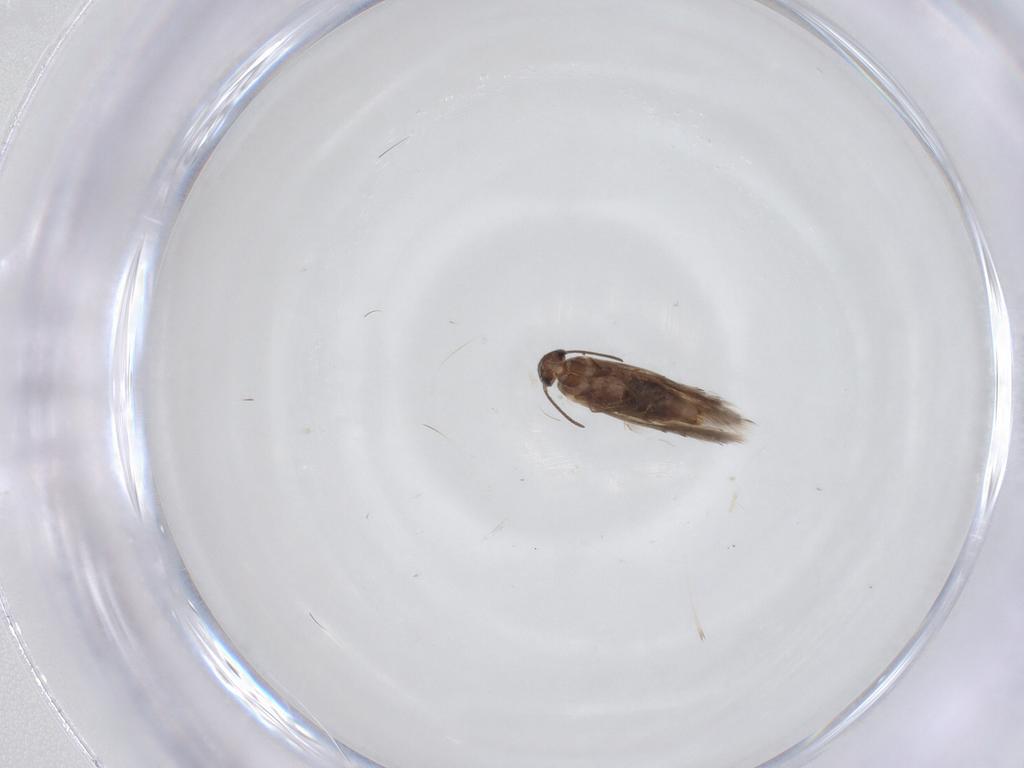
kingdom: Animalia
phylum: Arthropoda
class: Insecta
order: Lepidoptera
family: Heliozelidae
